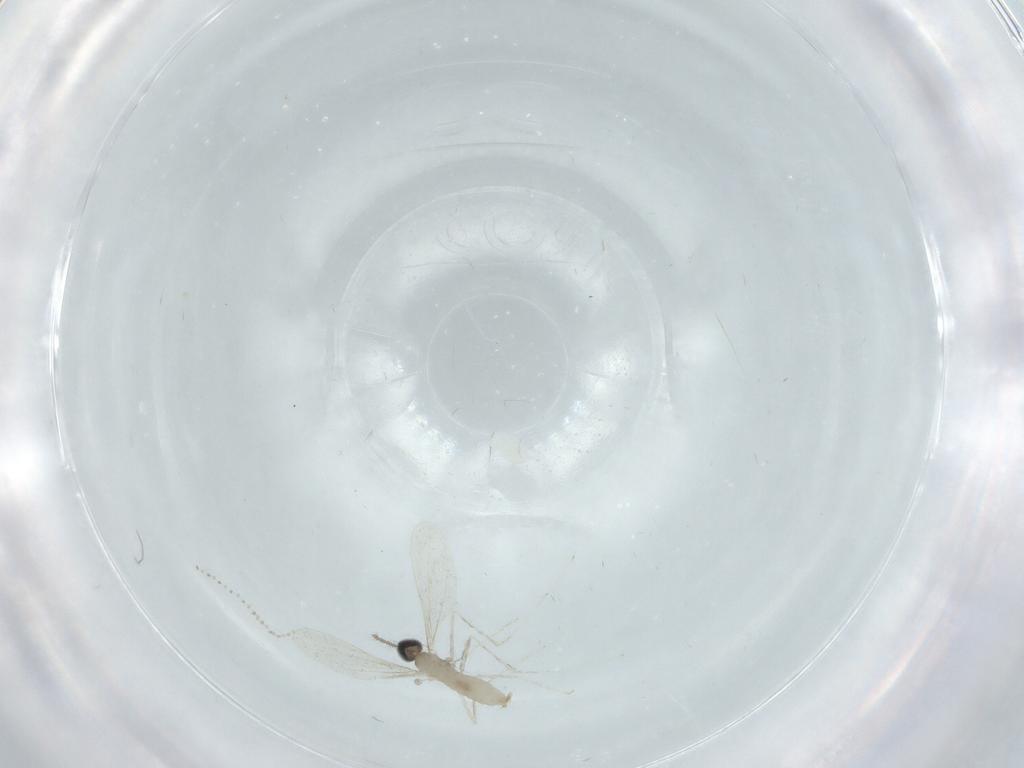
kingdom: Animalia
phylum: Arthropoda
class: Insecta
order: Diptera
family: Cecidomyiidae
